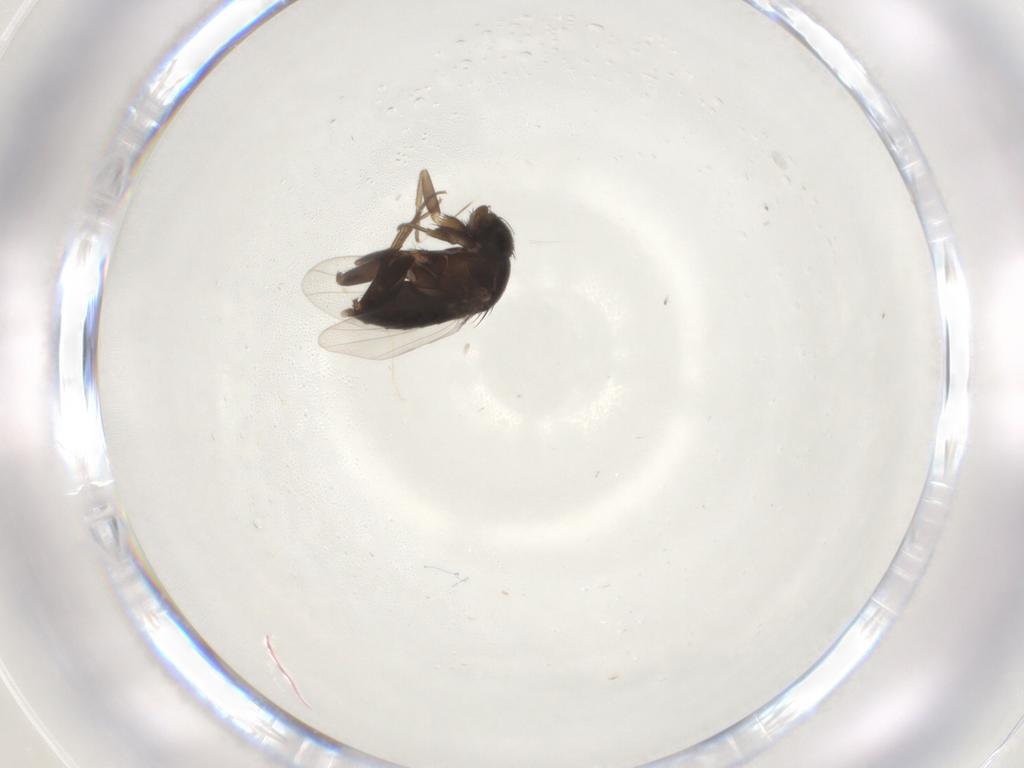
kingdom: Animalia
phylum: Arthropoda
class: Insecta
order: Diptera
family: Phoridae
